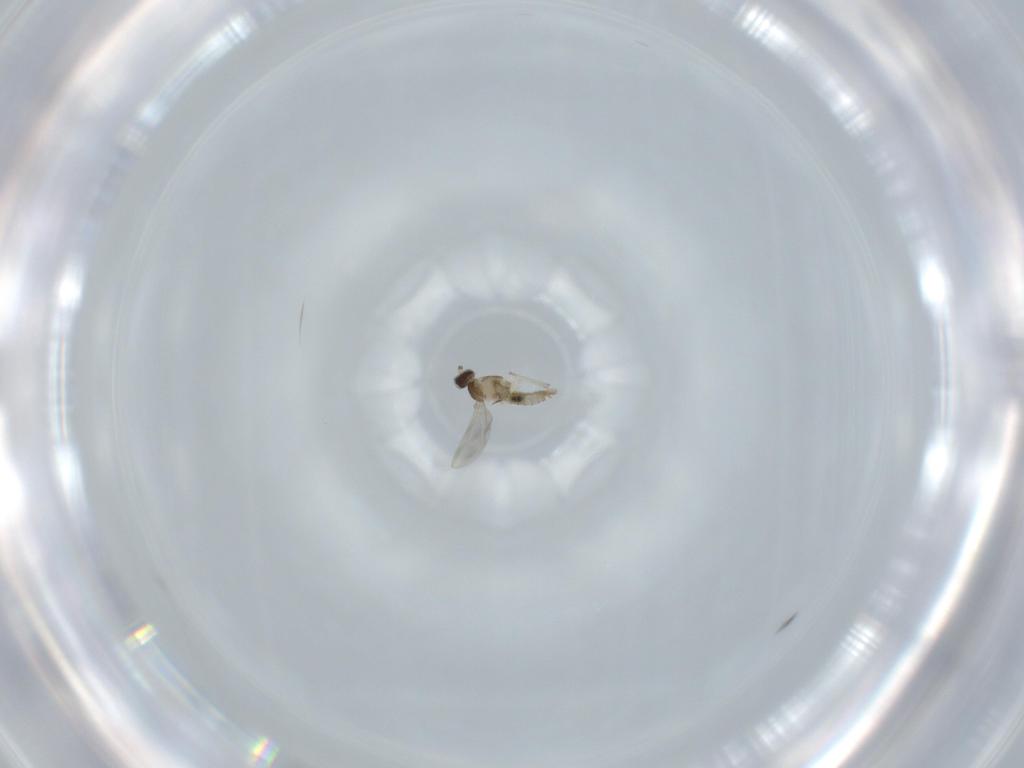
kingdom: Animalia
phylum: Arthropoda
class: Insecta
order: Diptera
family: Cecidomyiidae
